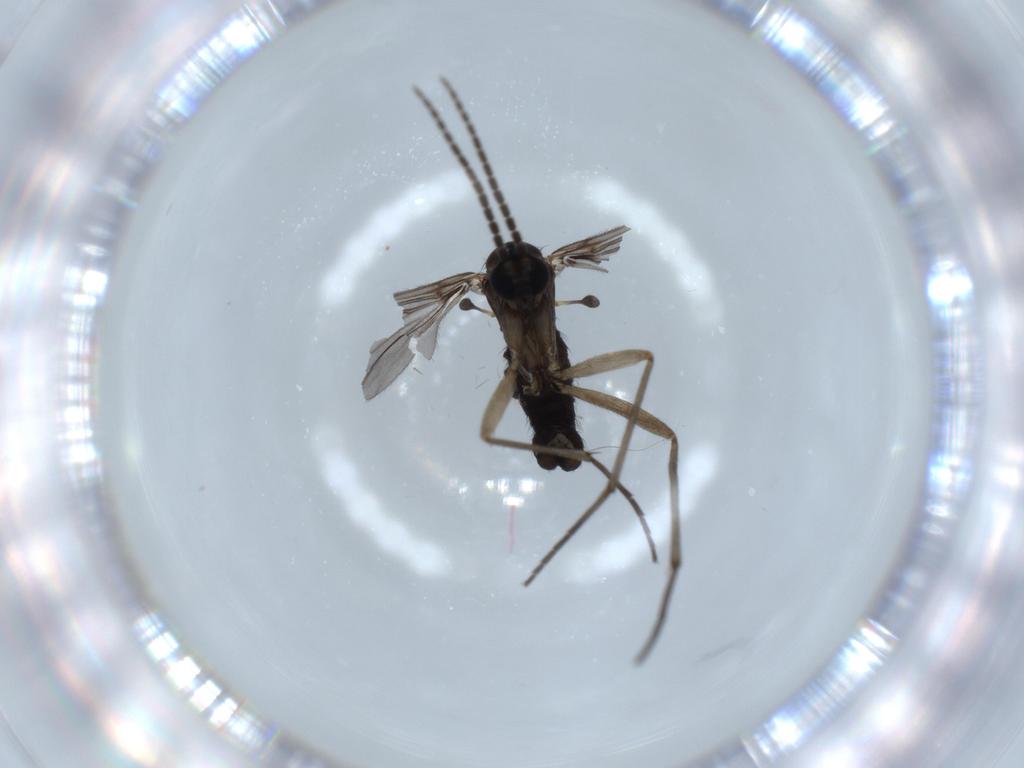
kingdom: Animalia
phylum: Arthropoda
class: Insecta
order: Diptera
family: Sciaridae
